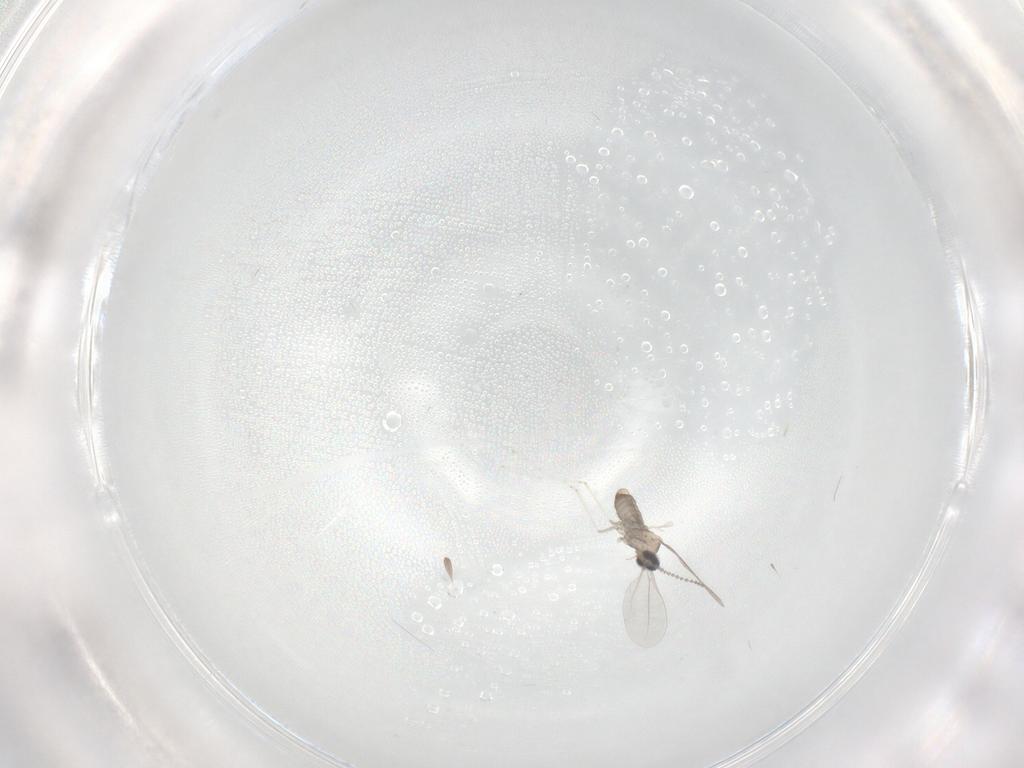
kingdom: Animalia
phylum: Arthropoda
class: Insecta
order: Diptera
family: Cecidomyiidae
